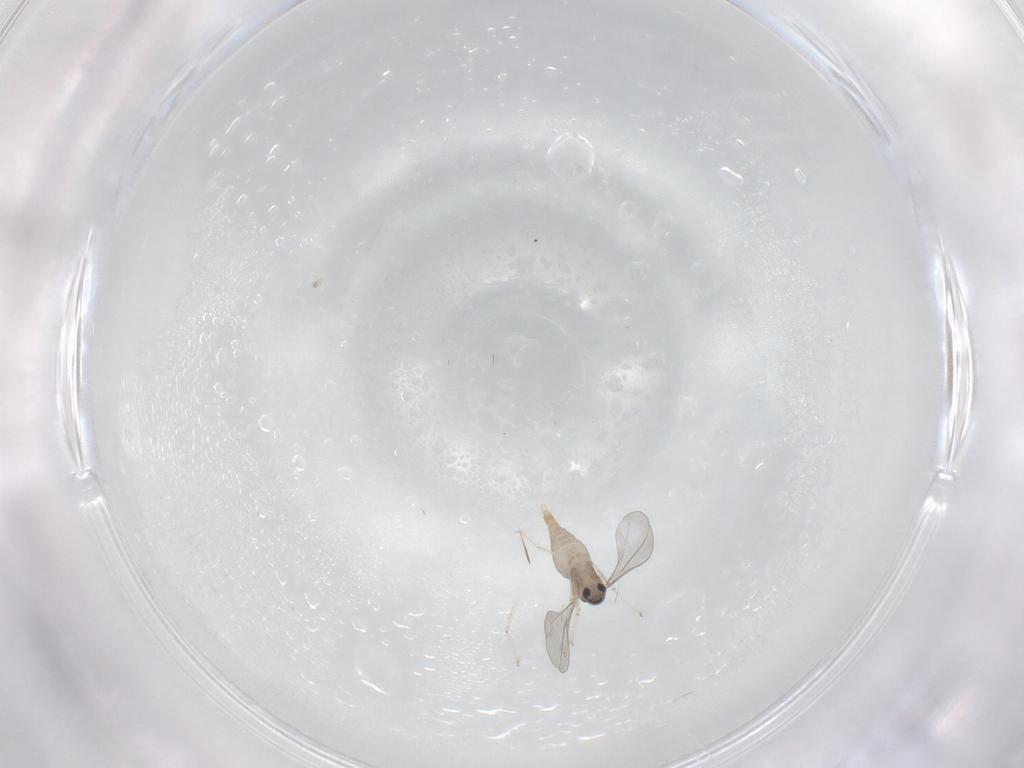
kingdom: Animalia
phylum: Arthropoda
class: Insecta
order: Diptera
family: Cecidomyiidae
